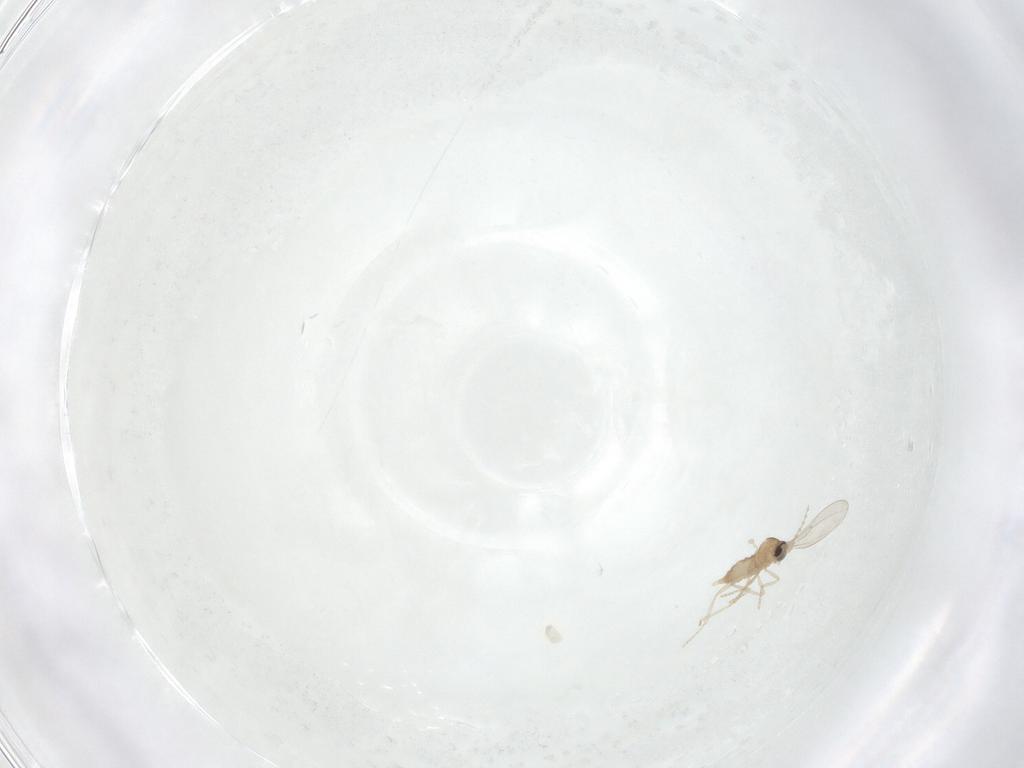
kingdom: Animalia
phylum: Arthropoda
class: Insecta
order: Diptera
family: Cecidomyiidae
